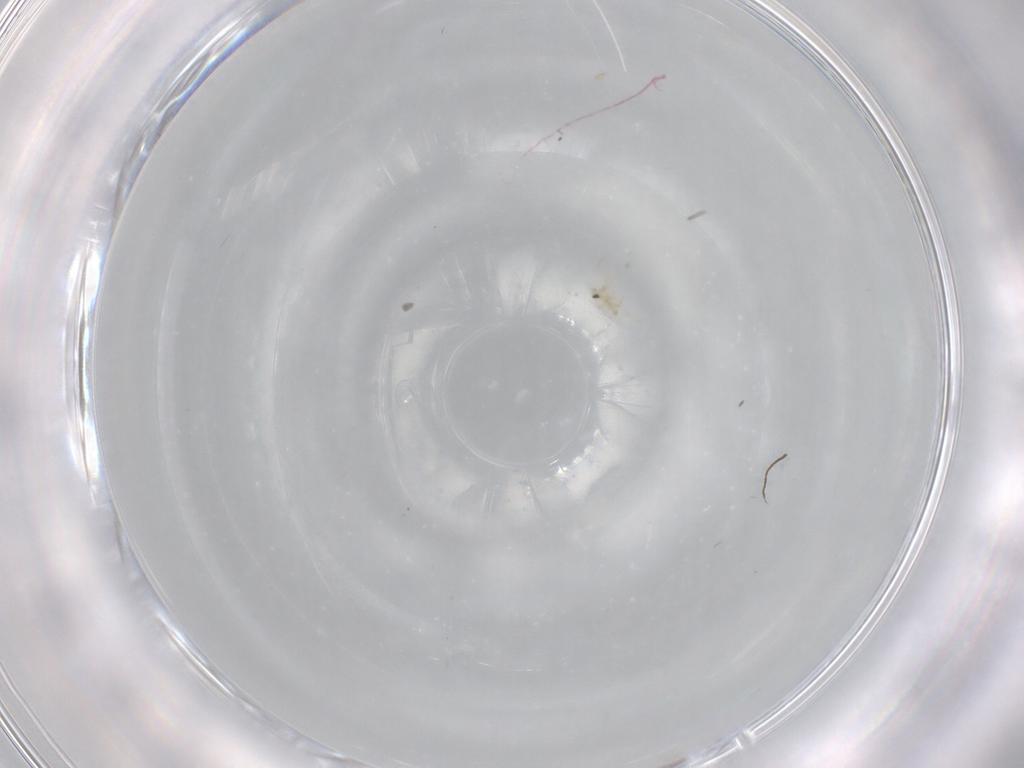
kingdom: Animalia
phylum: Arthropoda
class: Insecta
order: Diptera
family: Cecidomyiidae
